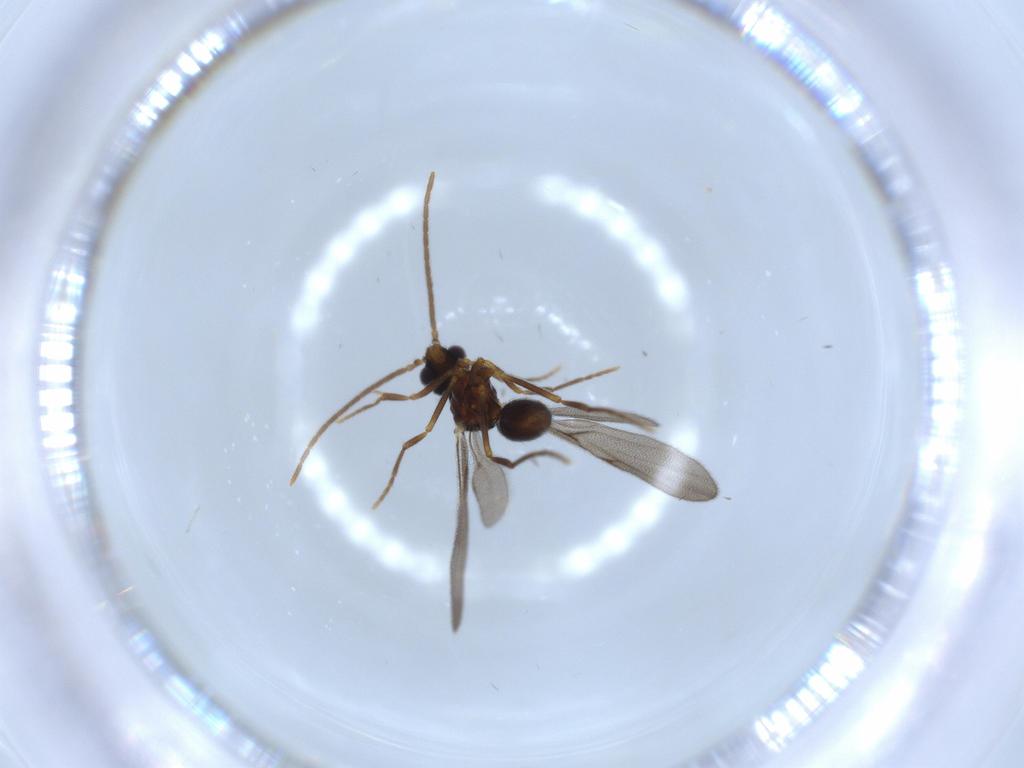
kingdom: Animalia
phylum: Arthropoda
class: Insecta
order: Hymenoptera
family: Formicidae
